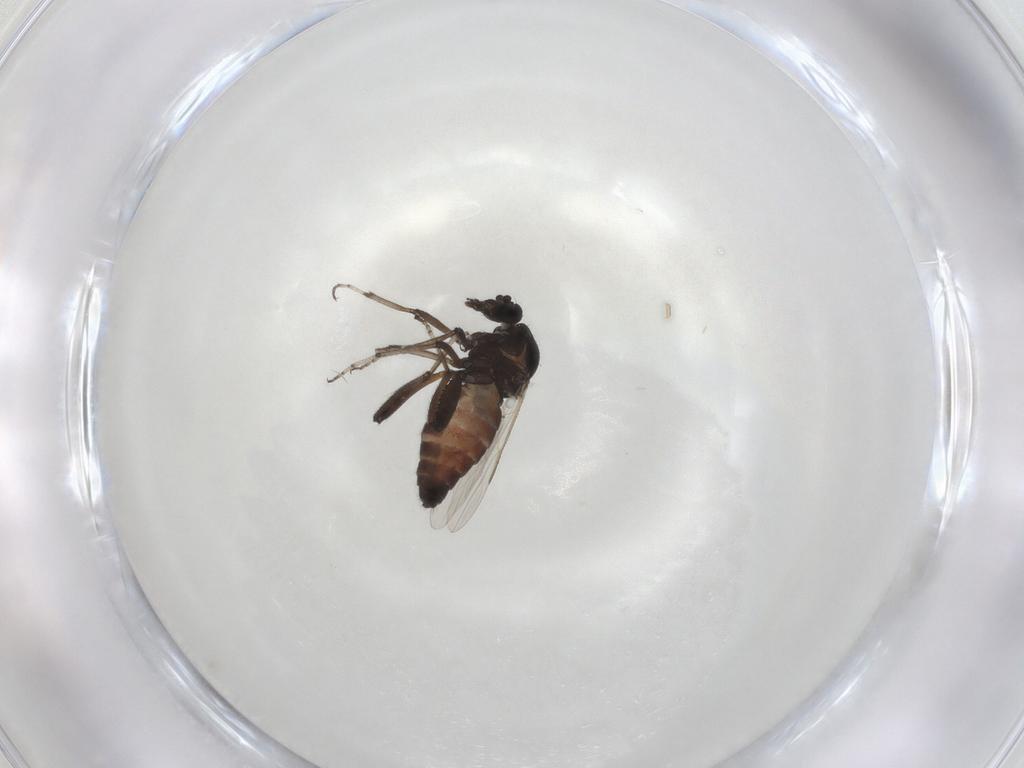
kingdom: Animalia
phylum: Arthropoda
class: Insecta
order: Diptera
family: Ceratopogonidae
